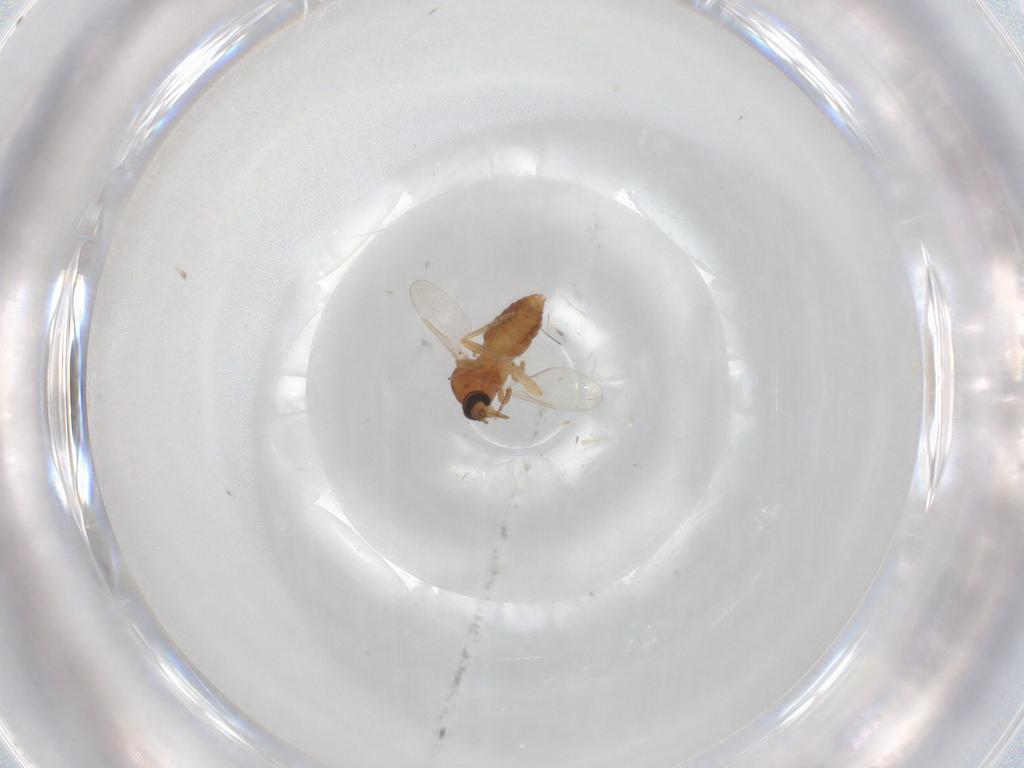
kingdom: Animalia
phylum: Arthropoda
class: Insecta
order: Diptera
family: Ceratopogonidae
